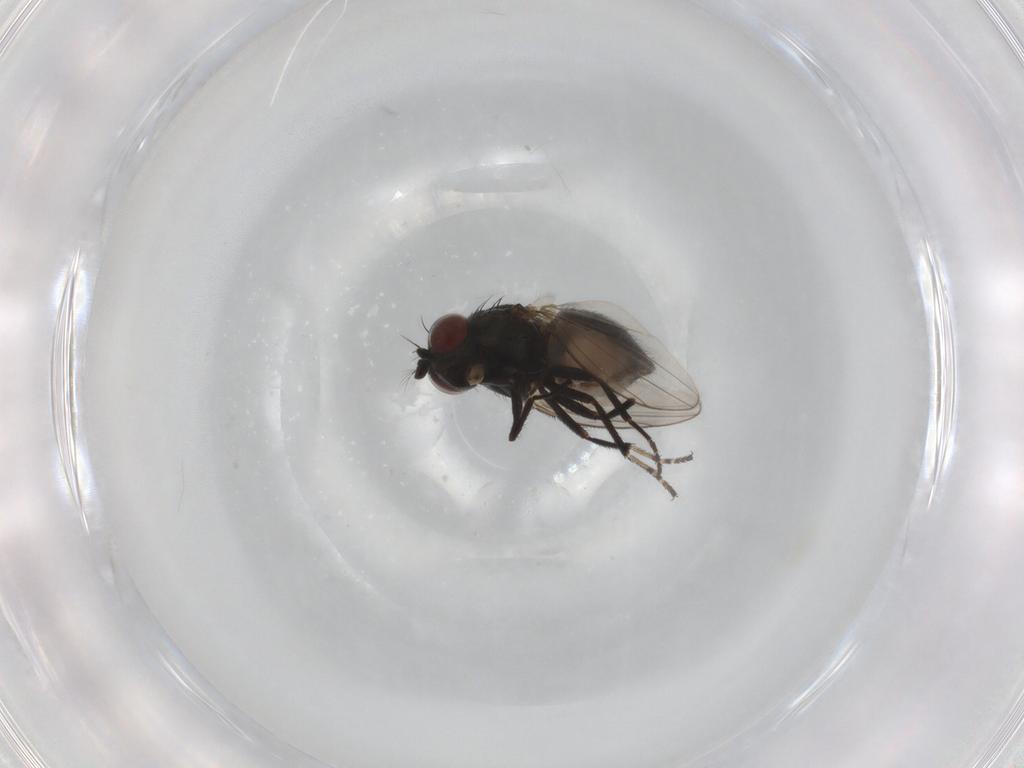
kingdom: Animalia
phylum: Arthropoda
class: Insecta
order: Diptera
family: Ephydridae
